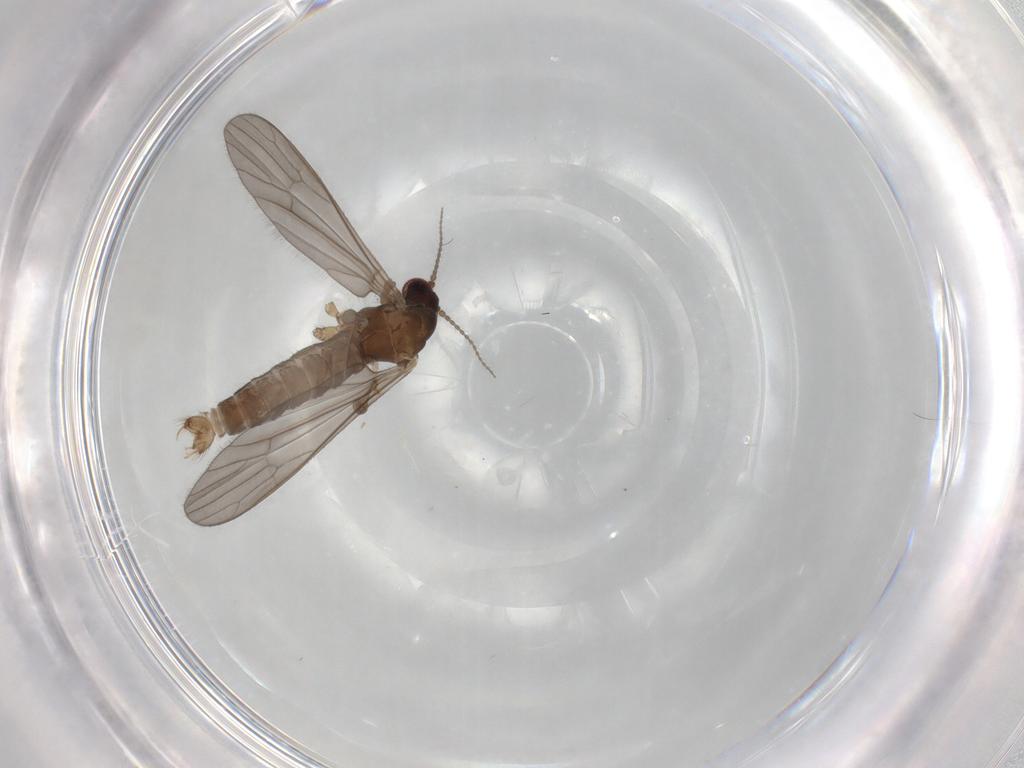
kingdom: Animalia
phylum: Arthropoda
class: Insecta
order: Diptera
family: Limoniidae
